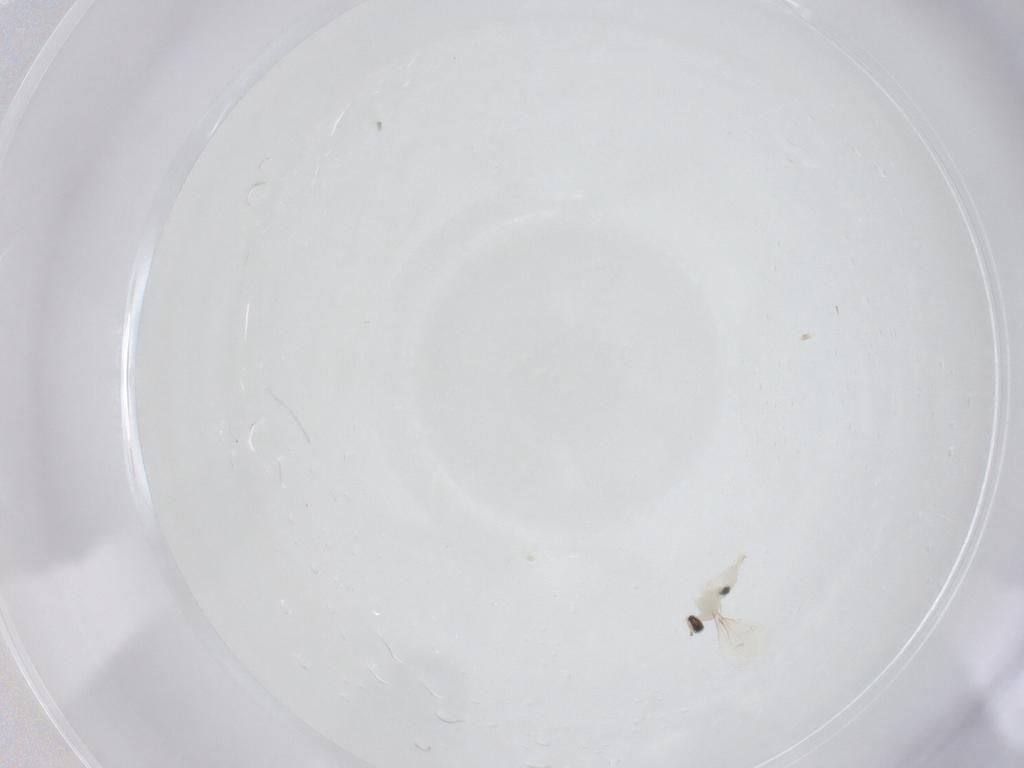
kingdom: Animalia
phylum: Arthropoda
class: Insecta
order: Diptera
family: Cecidomyiidae
